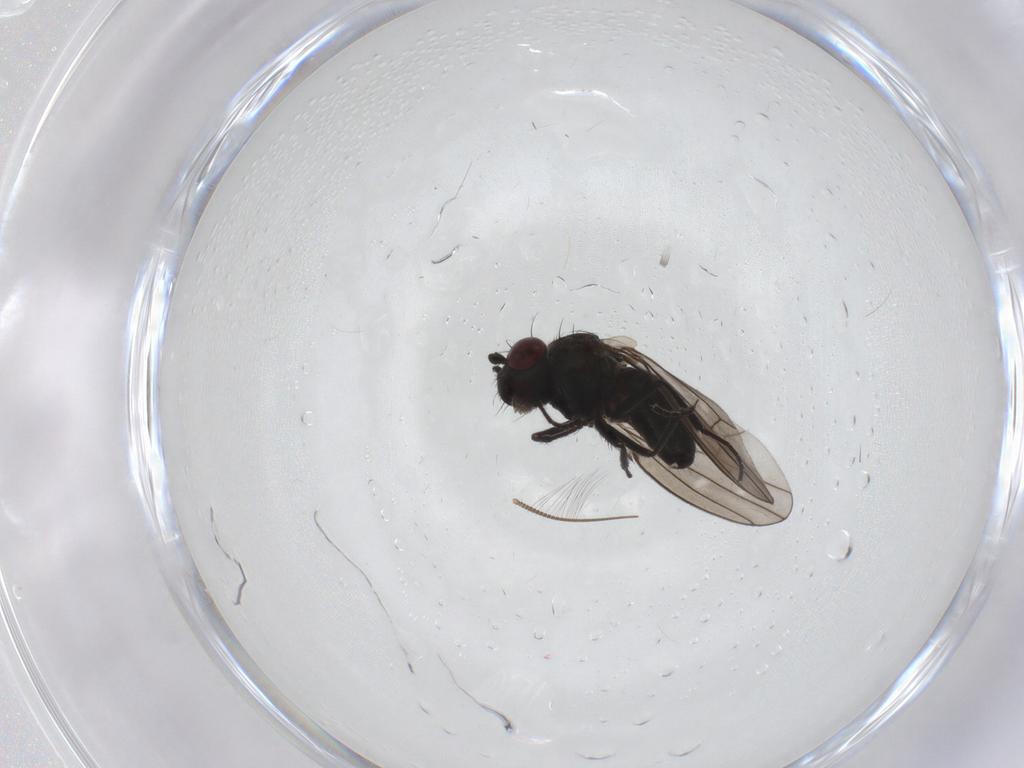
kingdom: Animalia
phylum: Arthropoda
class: Insecta
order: Diptera
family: Ephydridae
